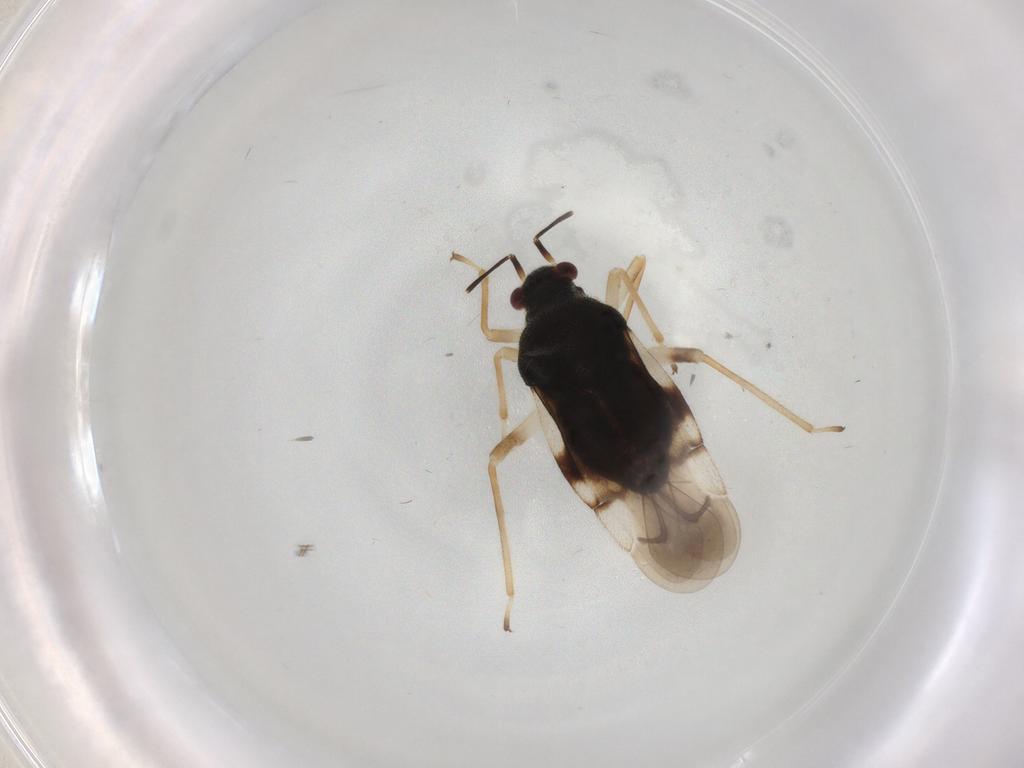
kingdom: Animalia
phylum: Arthropoda
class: Insecta
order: Hemiptera
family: Miridae
